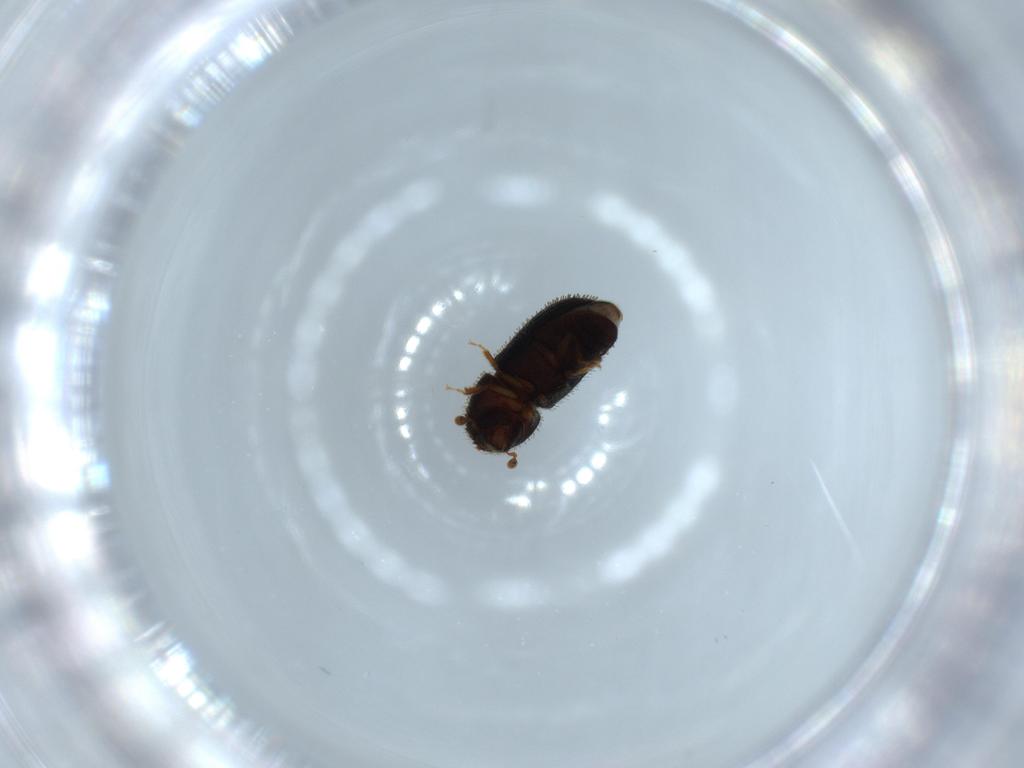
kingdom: Animalia
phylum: Arthropoda
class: Insecta
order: Coleoptera
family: Curculionidae
